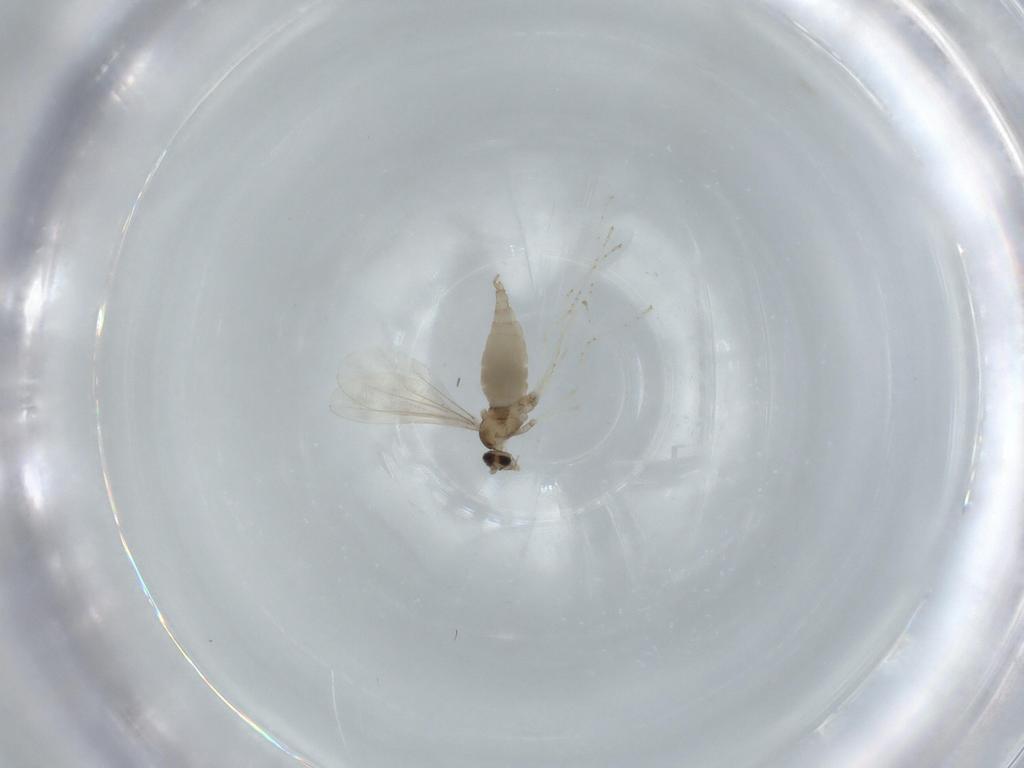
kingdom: Animalia
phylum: Arthropoda
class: Insecta
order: Diptera
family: Cecidomyiidae
